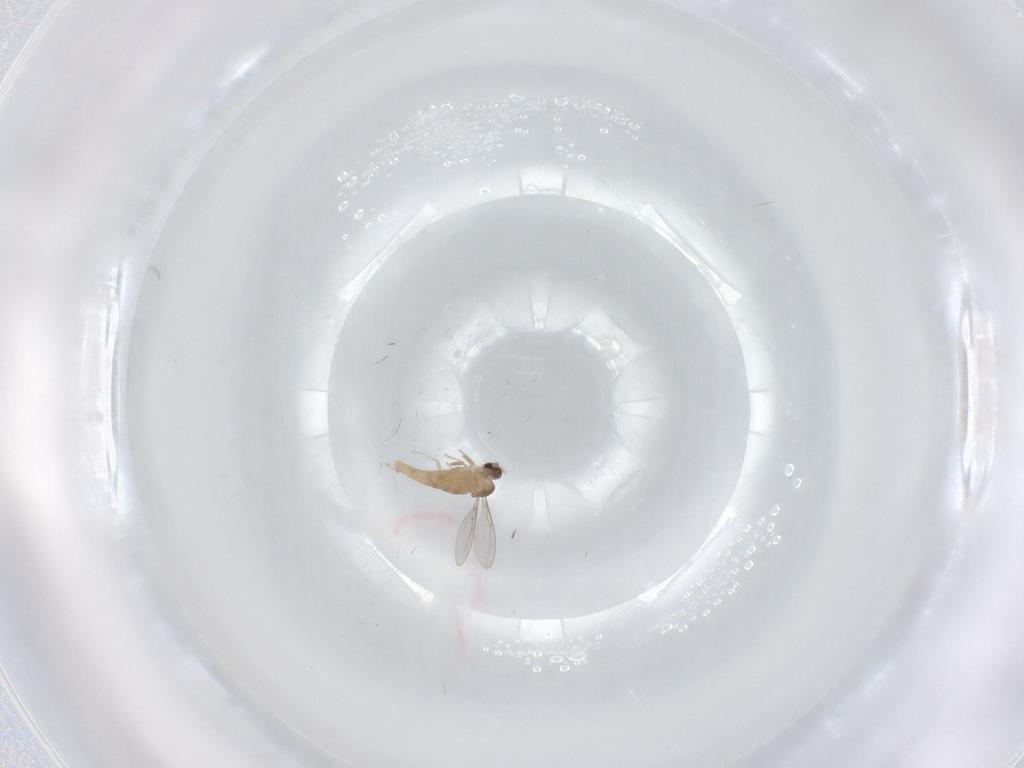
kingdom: Animalia
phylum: Arthropoda
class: Insecta
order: Diptera
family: Cecidomyiidae
